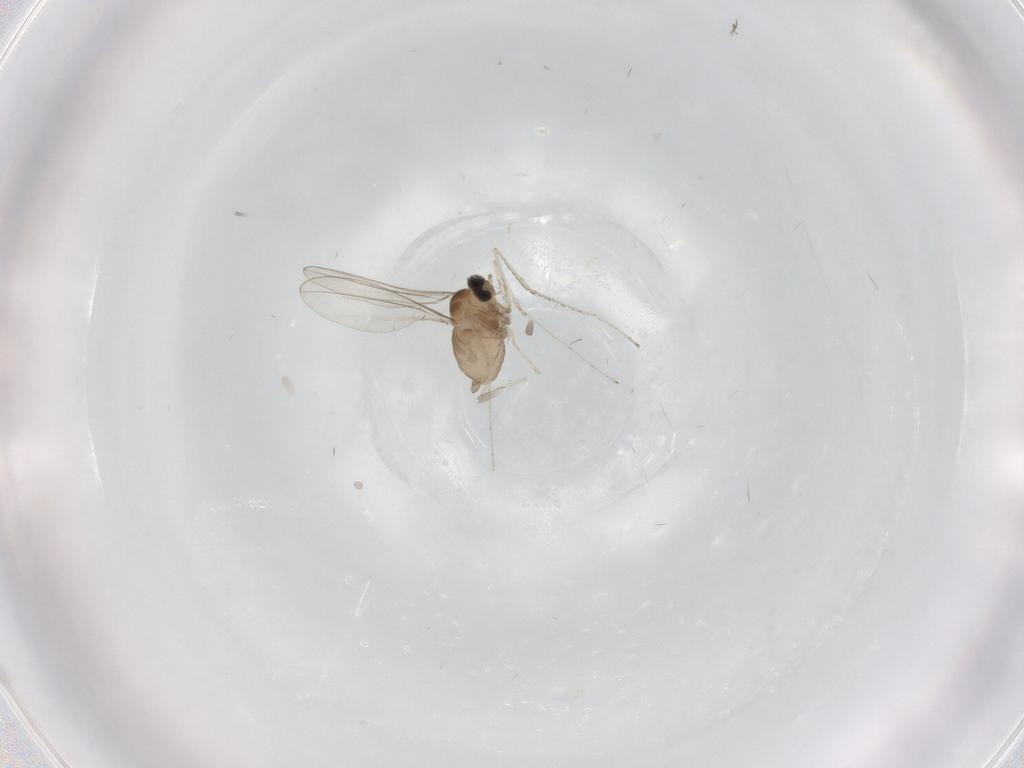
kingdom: Animalia
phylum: Arthropoda
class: Insecta
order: Diptera
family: Cecidomyiidae
